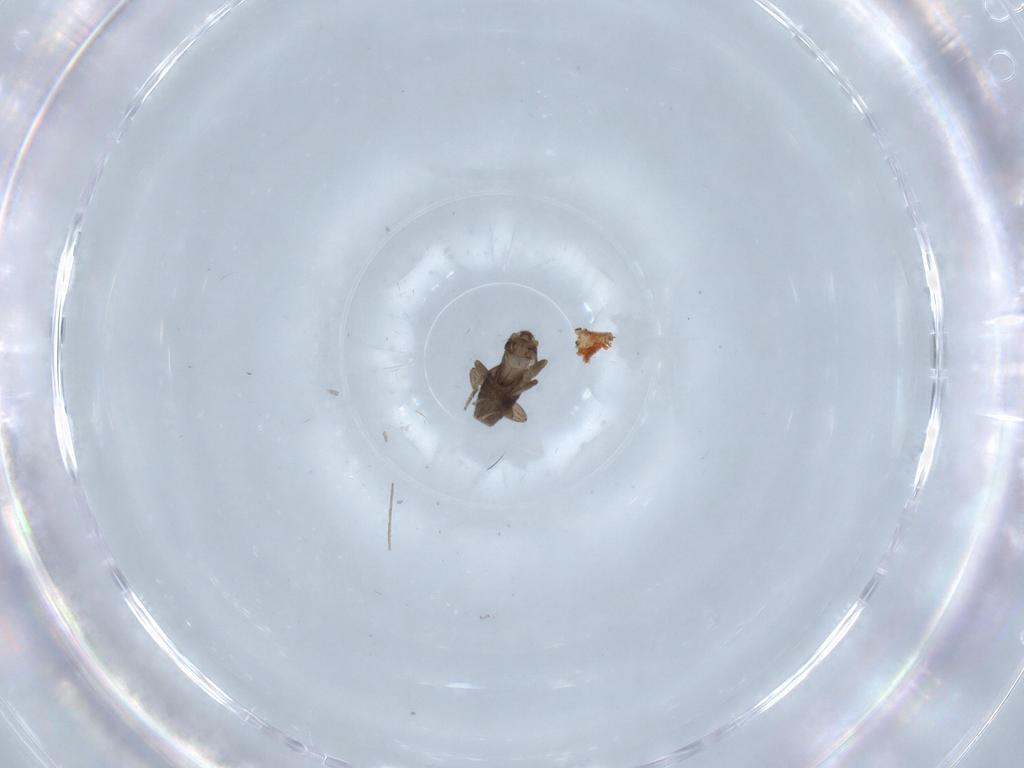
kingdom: Animalia
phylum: Arthropoda
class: Insecta
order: Diptera
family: Phoridae
